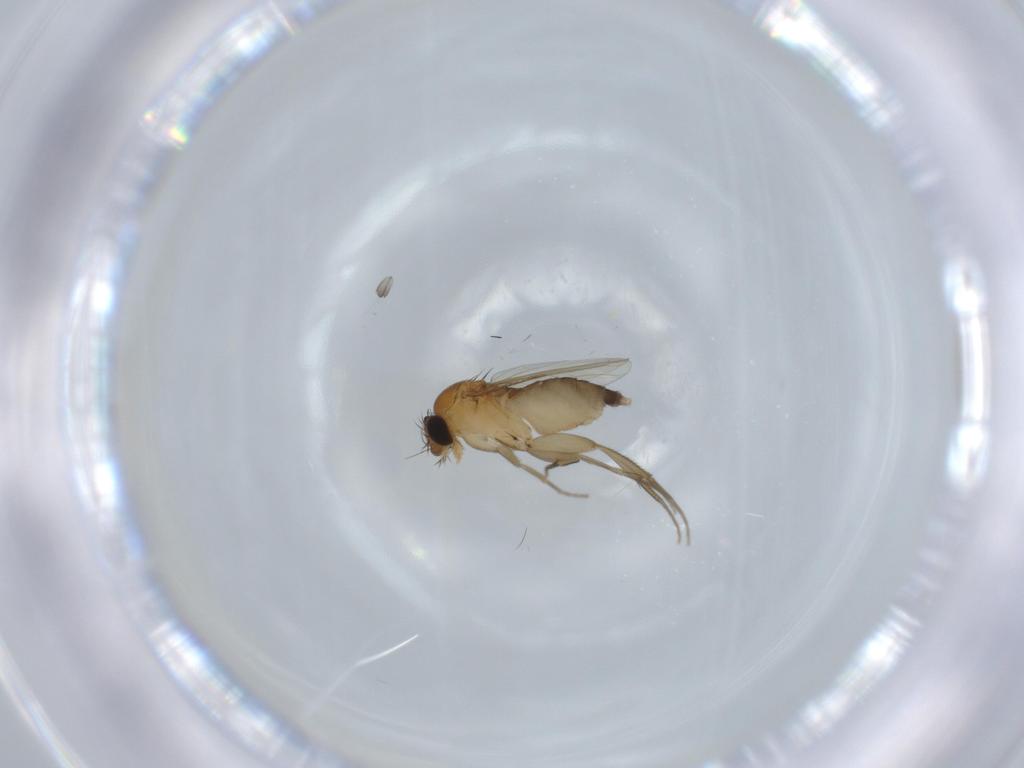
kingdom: Animalia
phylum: Arthropoda
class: Insecta
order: Diptera
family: Phoridae
